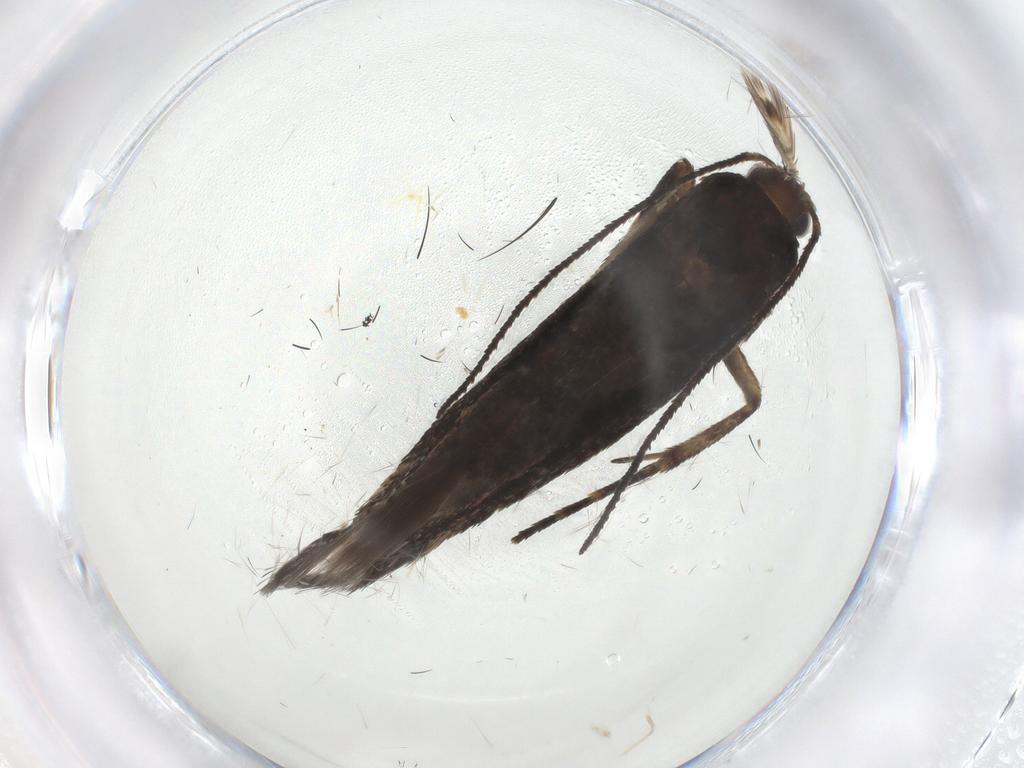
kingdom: Animalia
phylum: Arthropoda
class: Insecta
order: Lepidoptera
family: Gelechiidae
